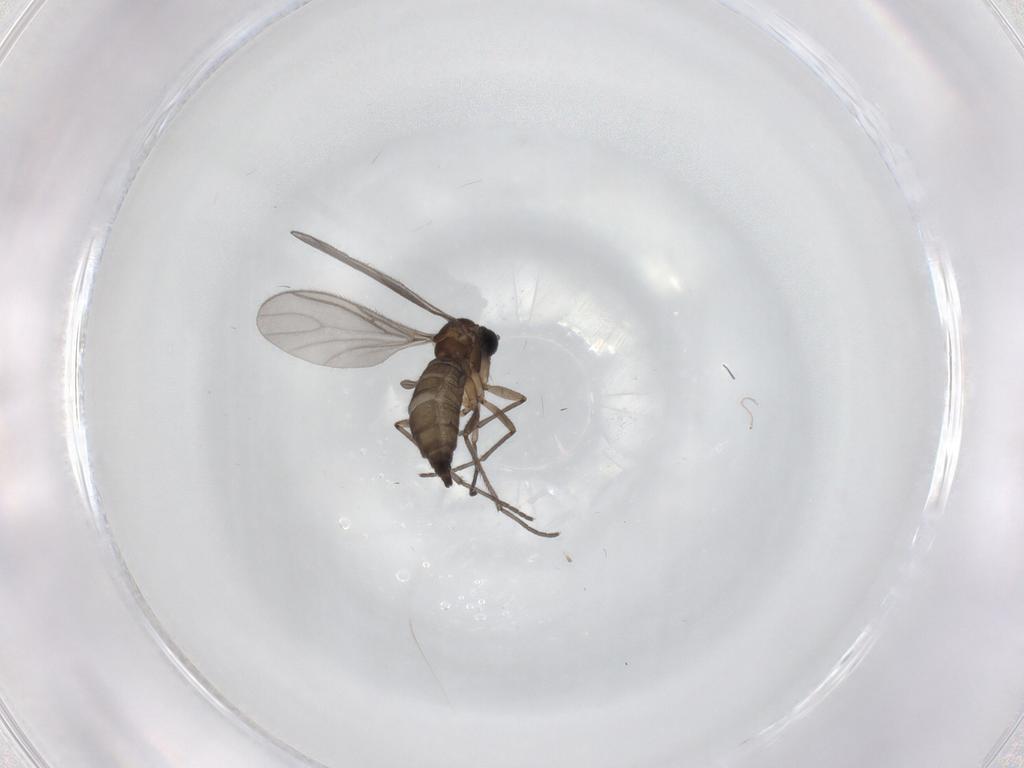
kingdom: Animalia
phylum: Arthropoda
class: Insecta
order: Diptera
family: Sciaridae
